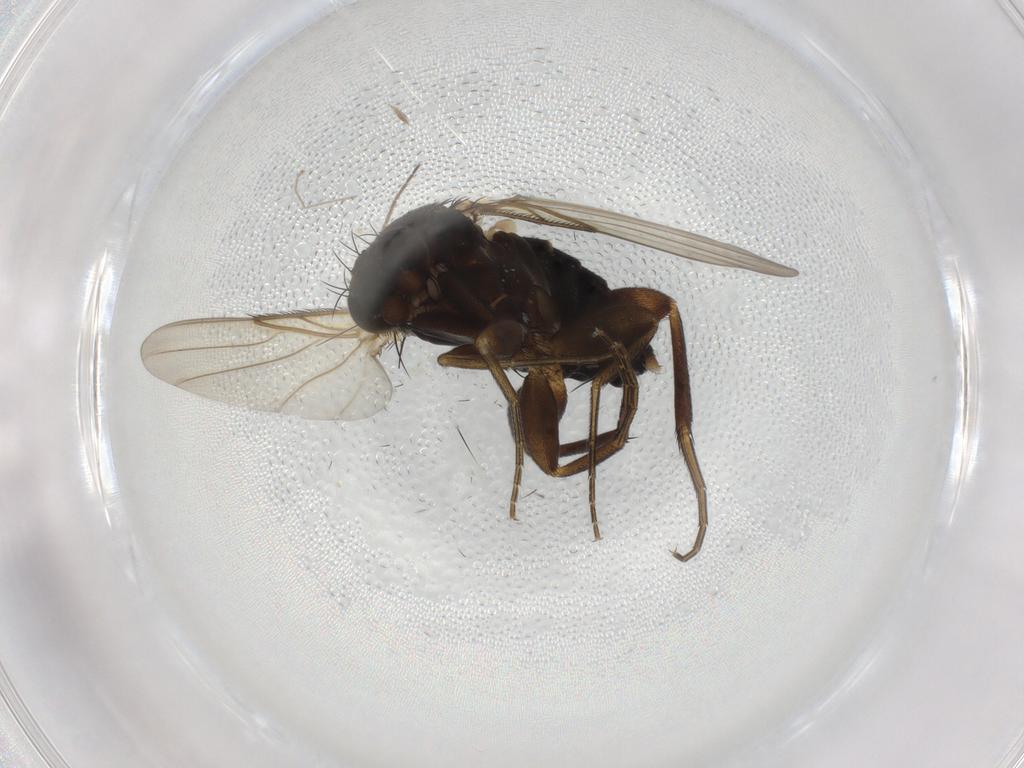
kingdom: Animalia
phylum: Arthropoda
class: Insecta
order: Diptera
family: Phoridae
